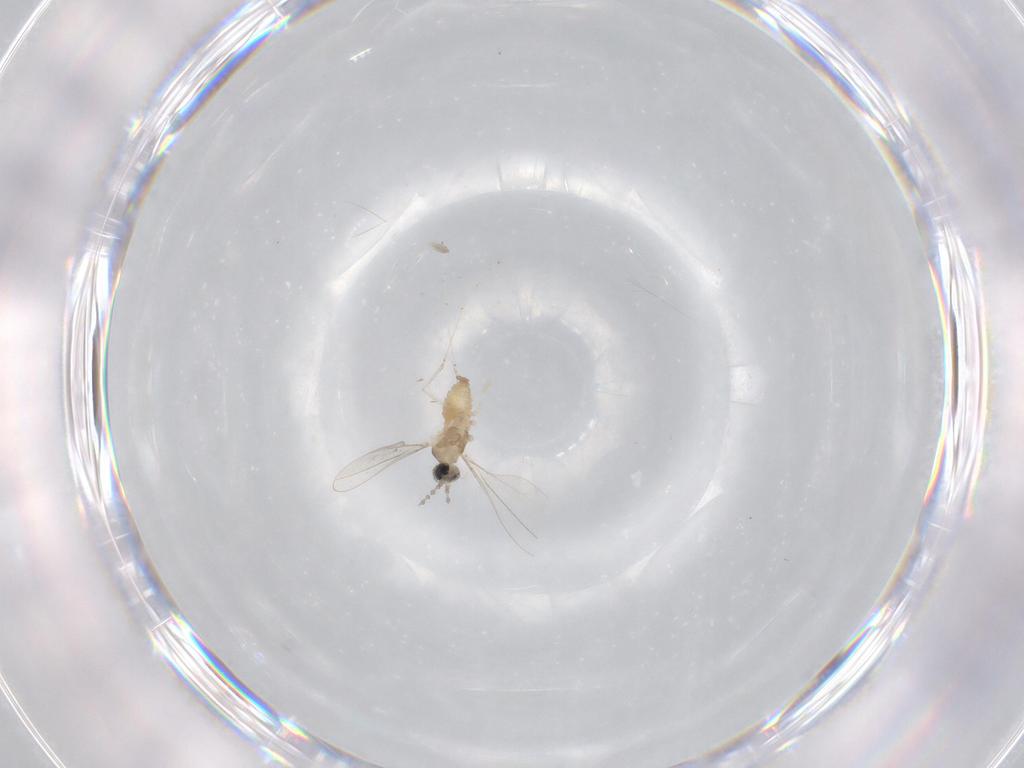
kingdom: Animalia
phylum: Arthropoda
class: Insecta
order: Diptera
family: Cecidomyiidae
